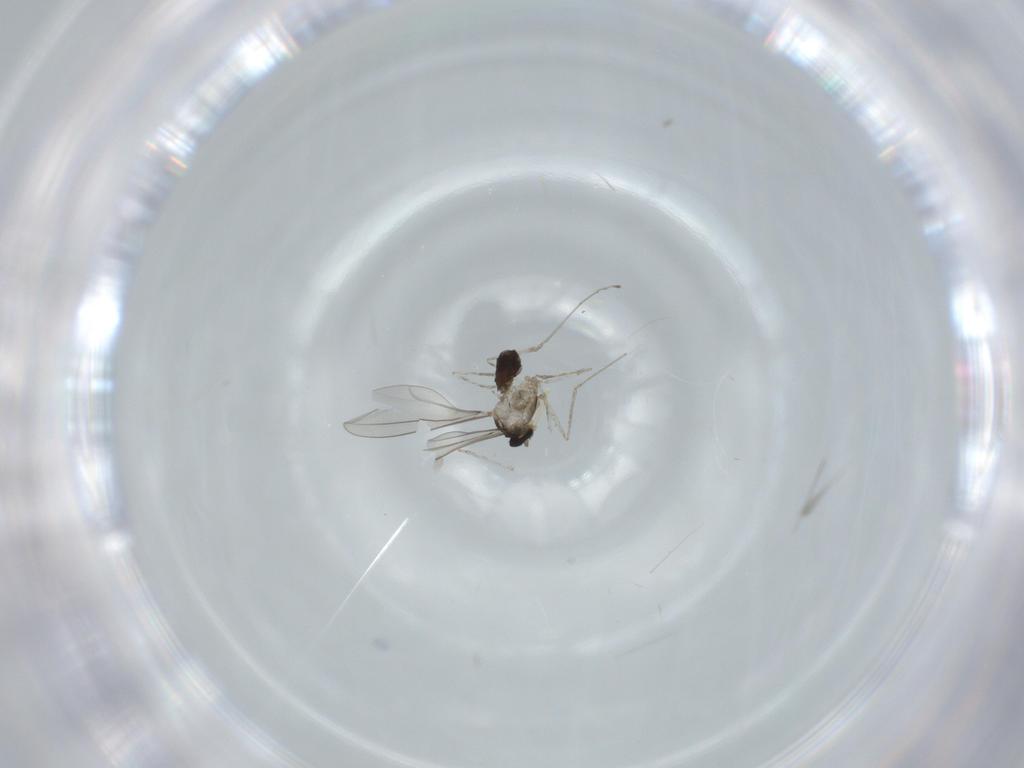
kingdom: Animalia
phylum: Arthropoda
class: Insecta
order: Diptera
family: Cecidomyiidae
